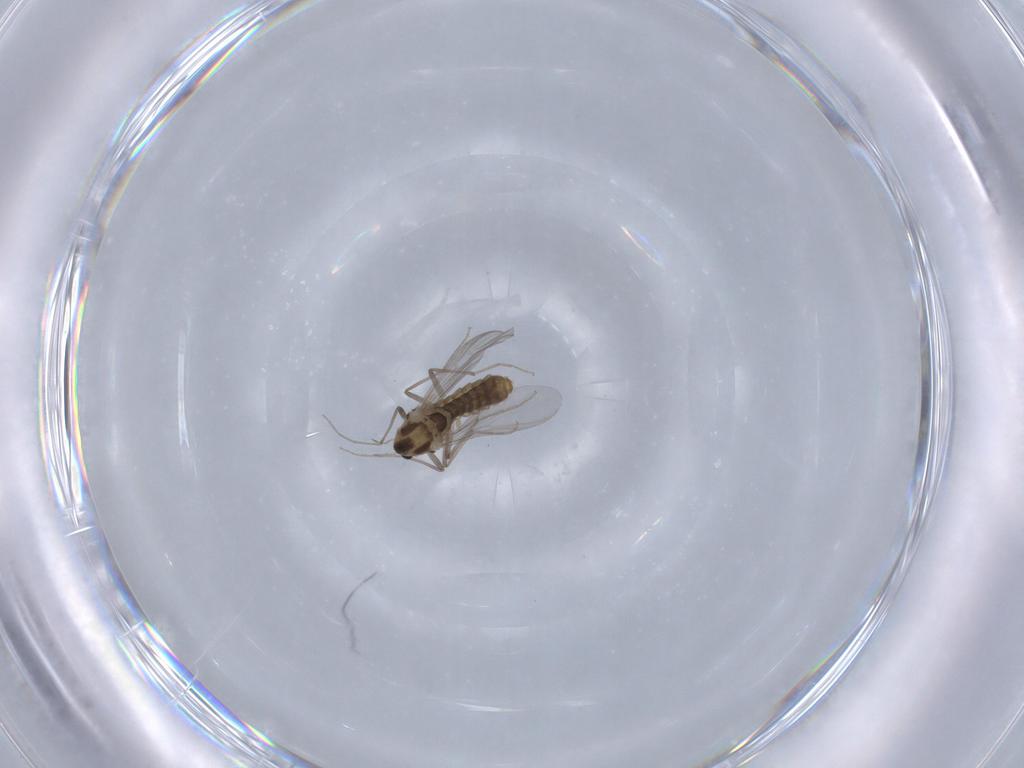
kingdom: Animalia
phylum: Arthropoda
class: Insecta
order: Diptera
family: Chironomidae
